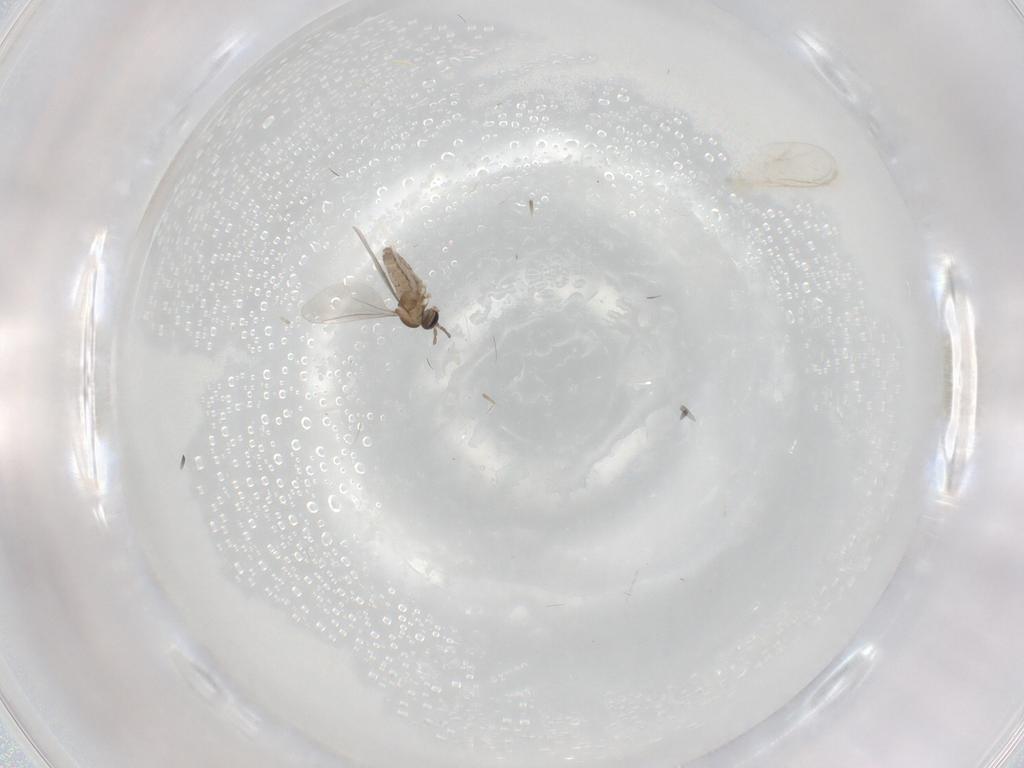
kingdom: Animalia
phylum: Arthropoda
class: Insecta
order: Diptera
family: Cecidomyiidae
